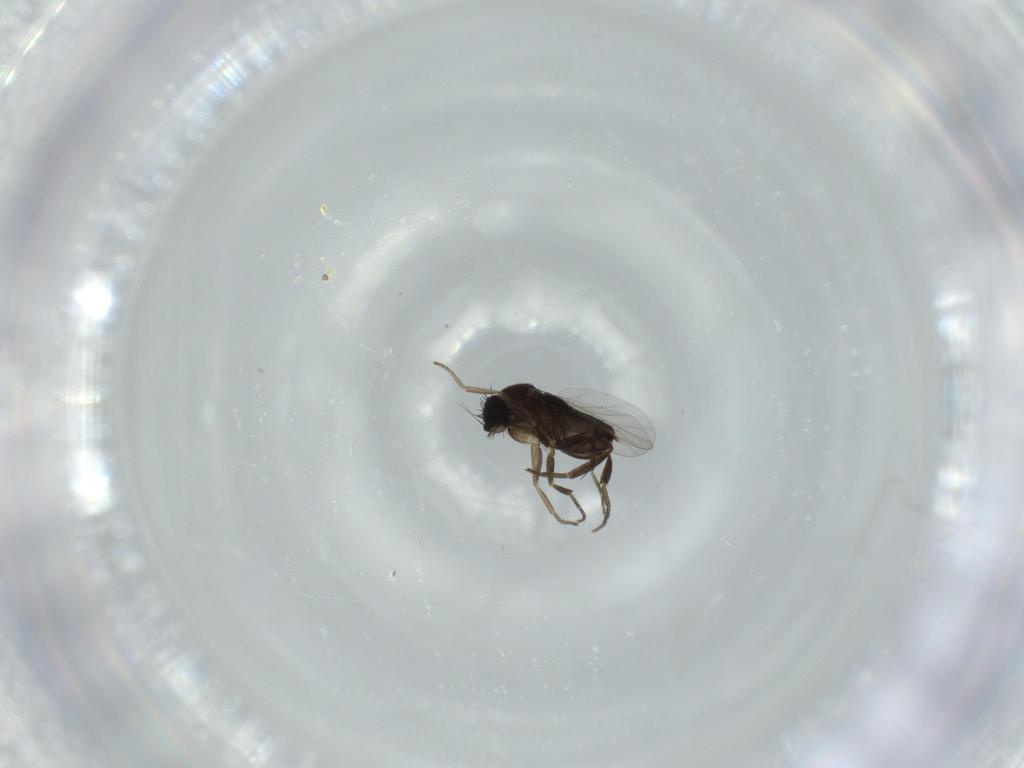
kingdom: Animalia
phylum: Arthropoda
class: Insecta
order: Diptera
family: Phoridae
